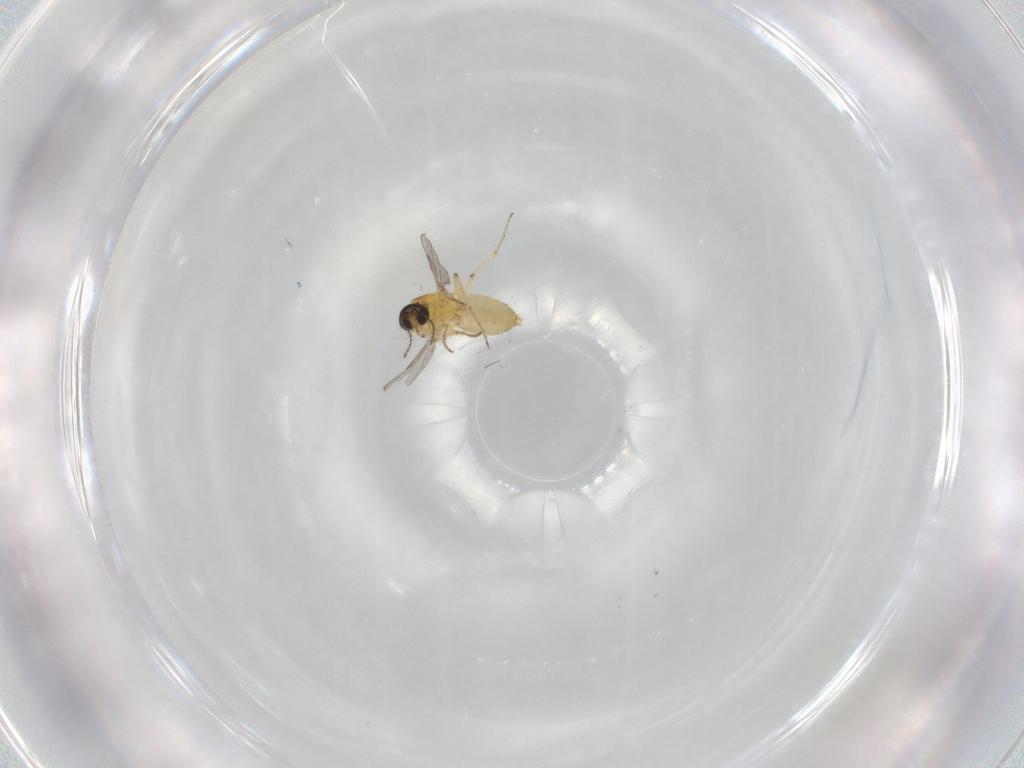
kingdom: Animalia
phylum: Arthropoda
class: Insecta
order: Diptera
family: Ceratopogonidae
